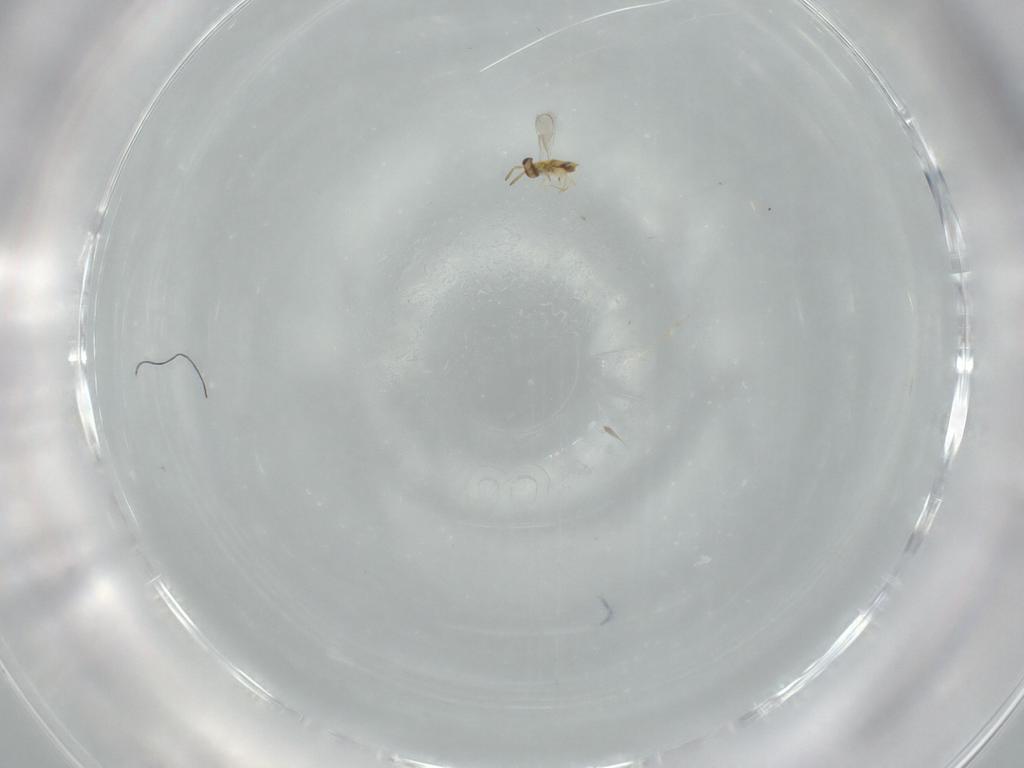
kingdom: Animalia
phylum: Arthropoda
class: Insecta
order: Hymenoptera
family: Aphelinidae
